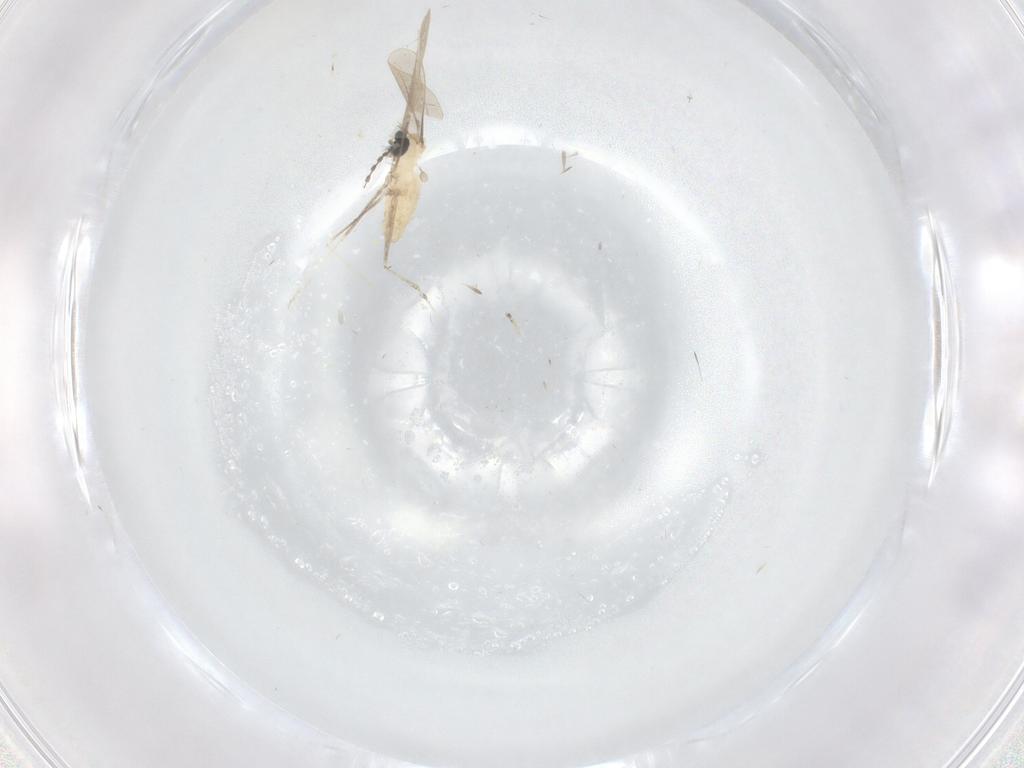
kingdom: Animalia
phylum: Arthropoda
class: Insecta
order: Diptera
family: Cecidomyiidae
